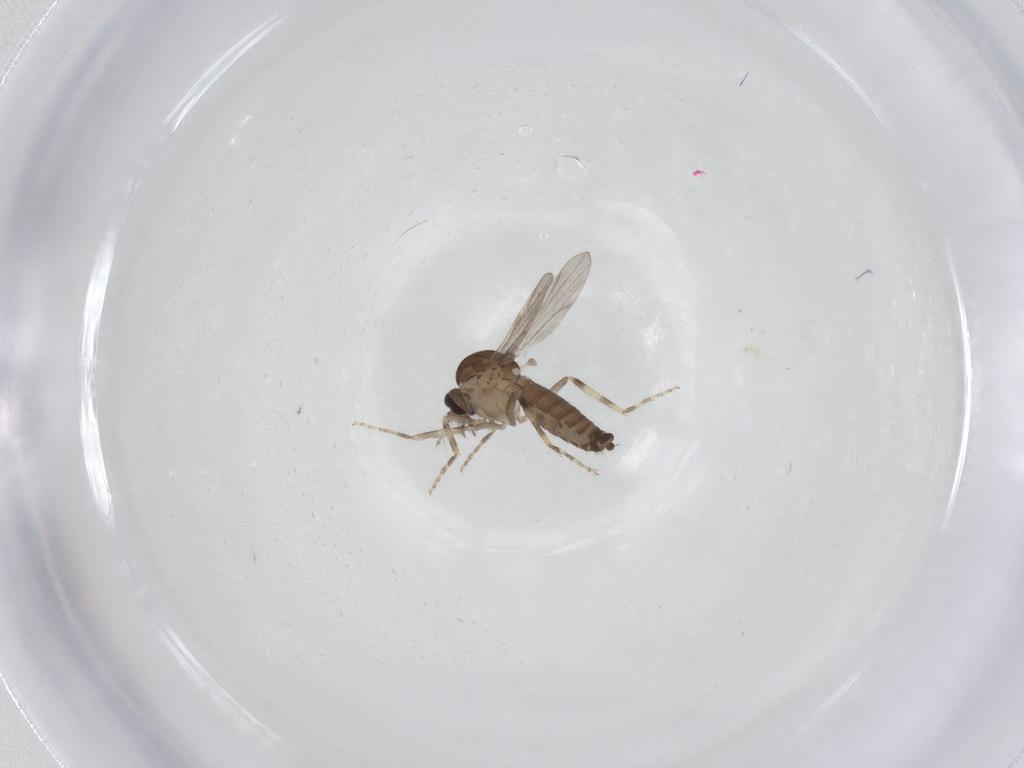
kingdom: Animalia
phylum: Arthropoda
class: Insecta
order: Diptera
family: Ceratopogonidae
